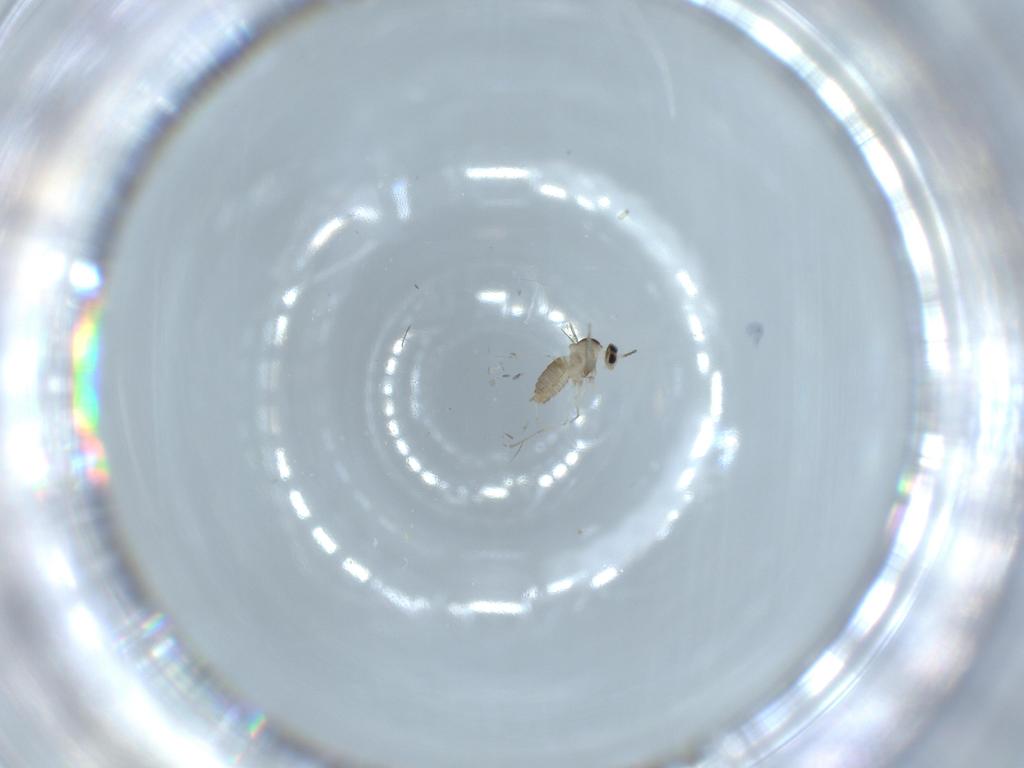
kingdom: Animalia
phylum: Arthropoda
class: Insecta
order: Diptera
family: Cecidomyiidae
